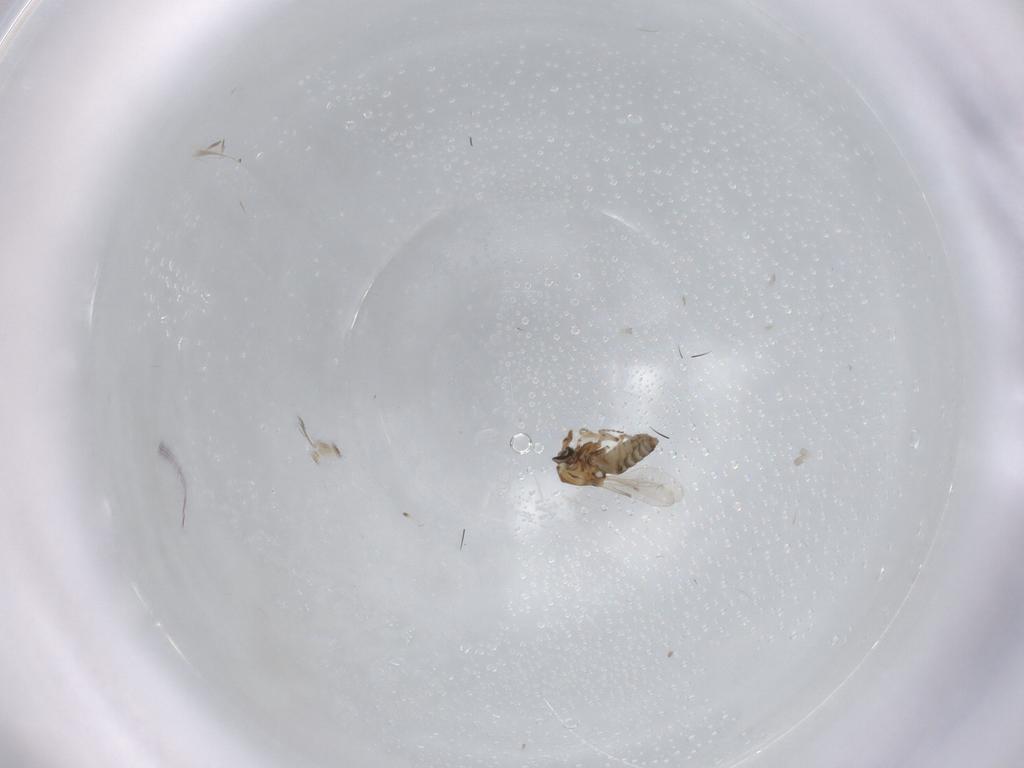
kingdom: Animalia
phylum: Arthropoda
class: Insecta
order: Diptera
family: Ceratopogonidae
